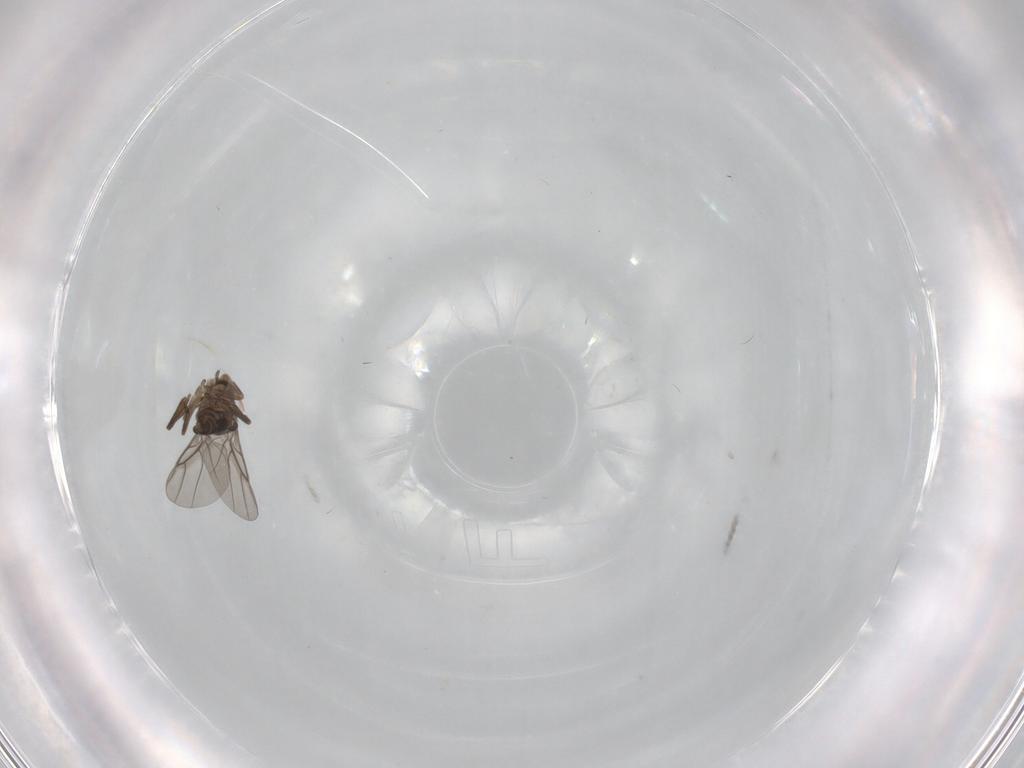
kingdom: Animalia
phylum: Arthropoda
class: Insecta
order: Diptera
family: Phoridae
